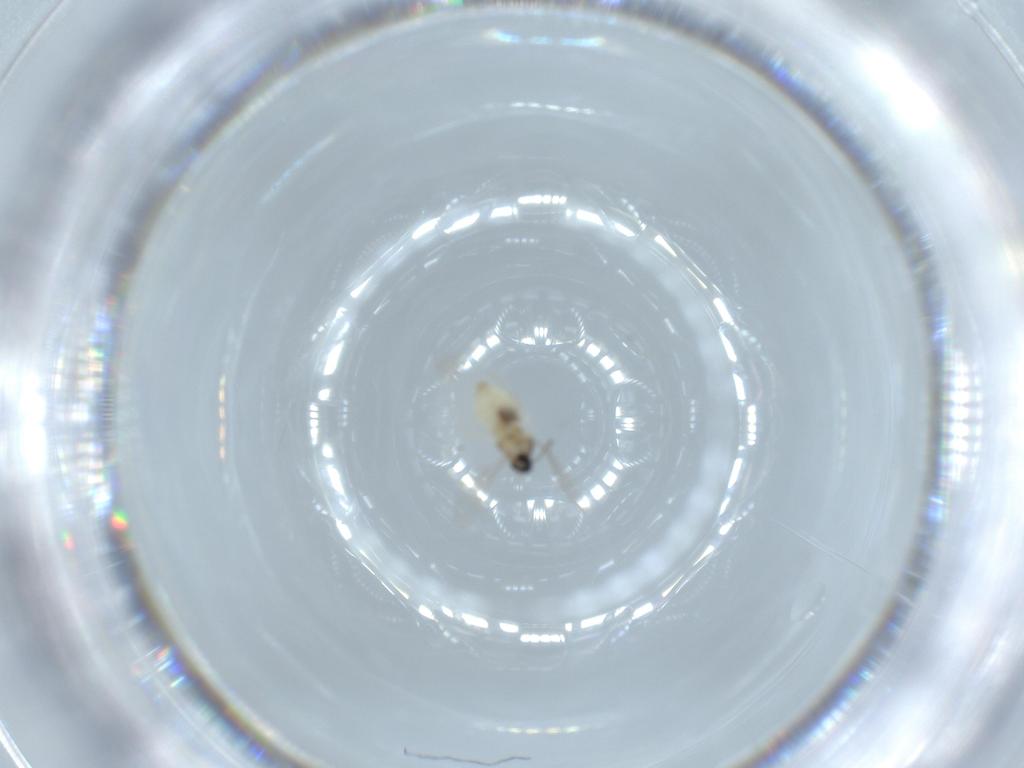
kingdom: Animalia
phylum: Arthropoda
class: Insecta
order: Diptera
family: Cecidomyiidae
